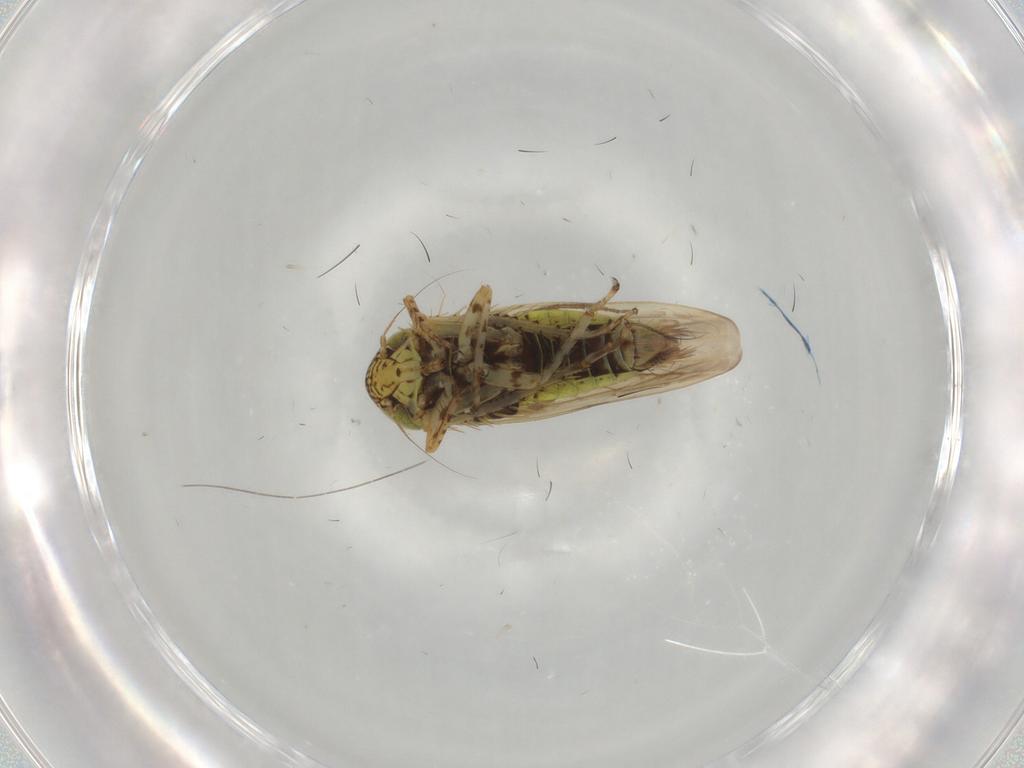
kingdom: Animalia
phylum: Arthropoda
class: Insecta
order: Hemiptera
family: Cicadellidae
